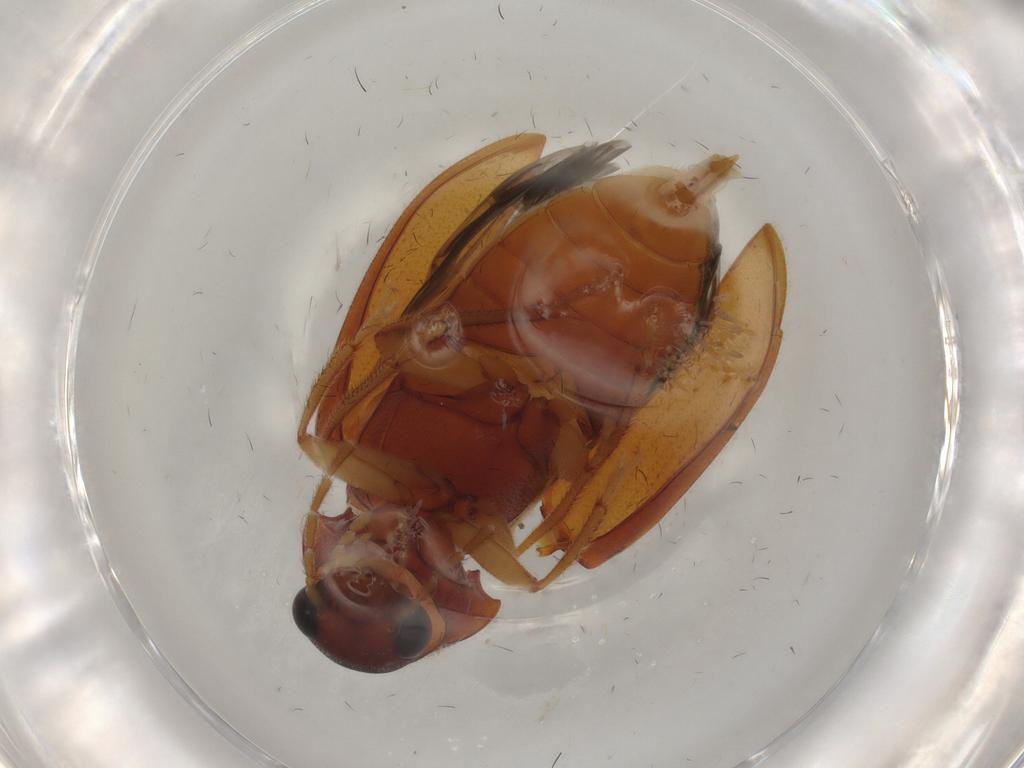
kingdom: Animalia
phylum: Arthropoda
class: Insecta
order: Coleoptera
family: Ptilodactylidae
